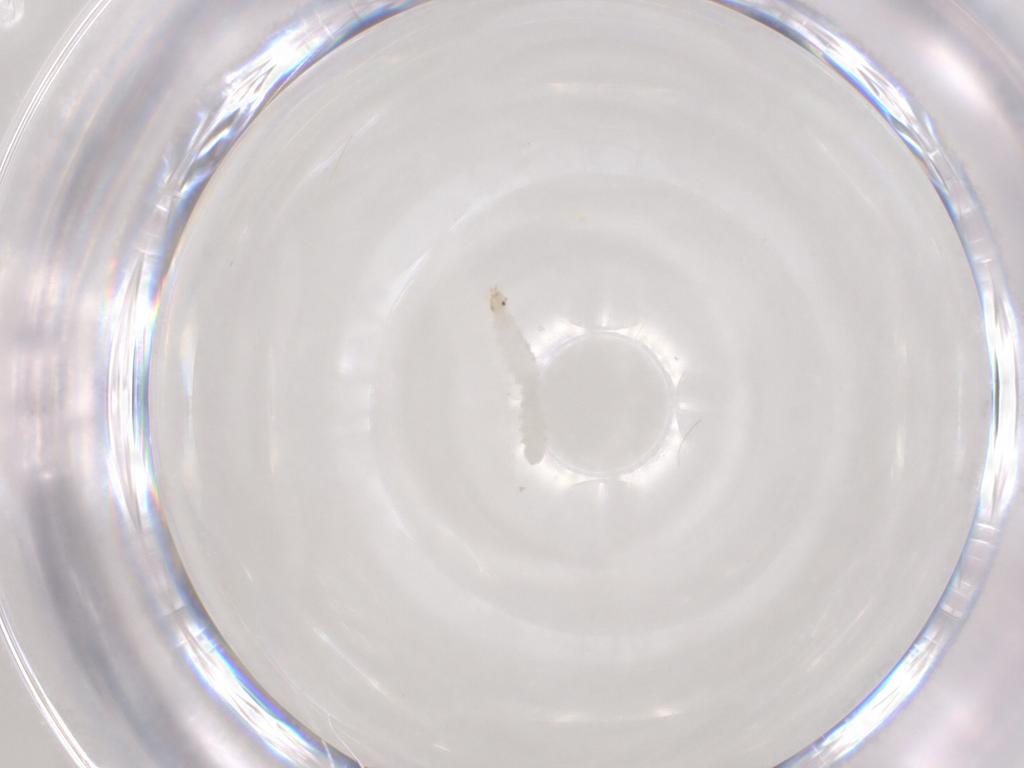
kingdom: Animalia
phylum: Arthropoda
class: Insecta
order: Diptera
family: Stratiomyidae
